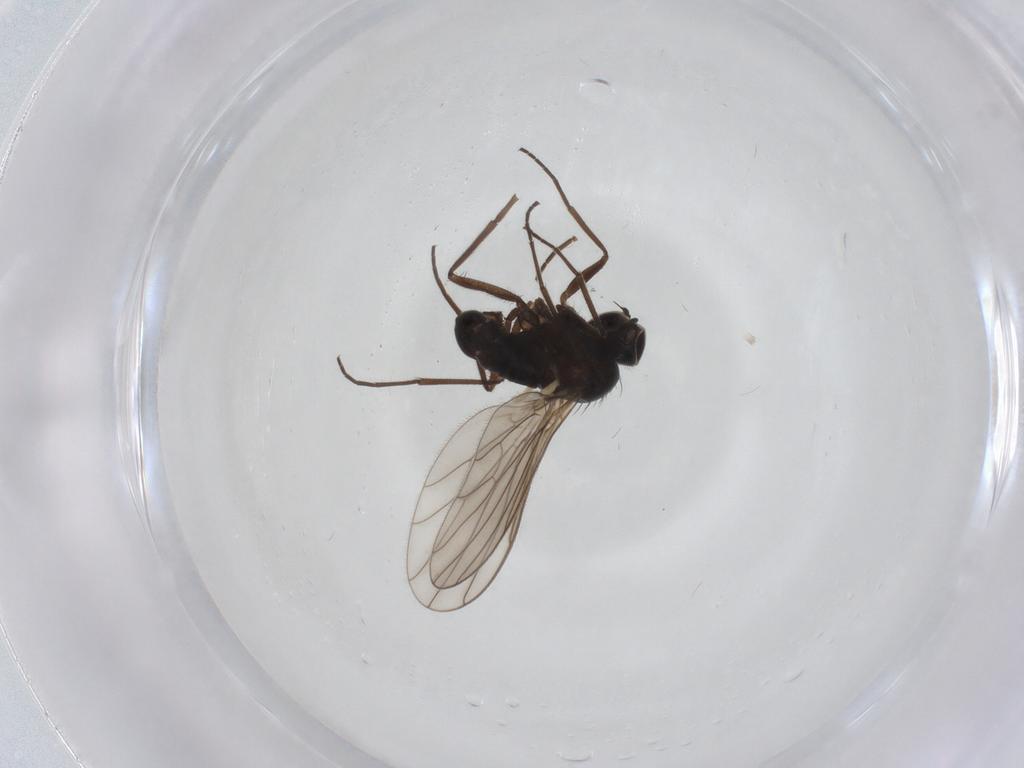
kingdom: Animalia
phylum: Arthropoda
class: Insecta
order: Diptera
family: Dolichopodidae
